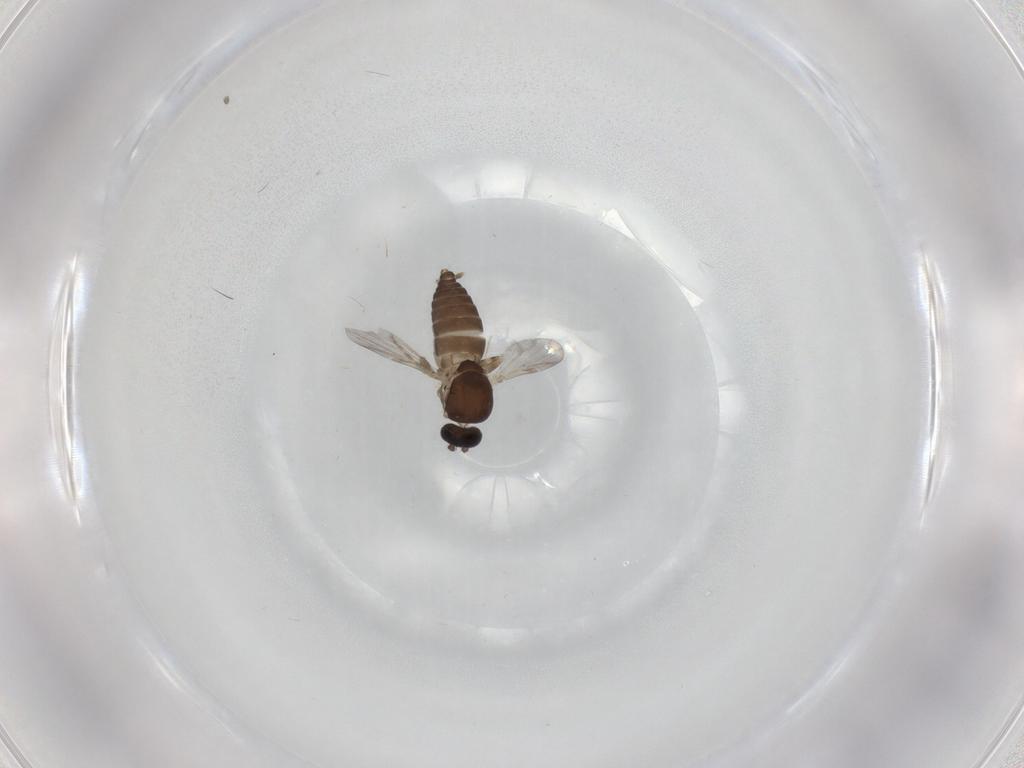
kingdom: Animalia
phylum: Arthropoda
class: Insecta
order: Diptera
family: Ceratopogonidae
